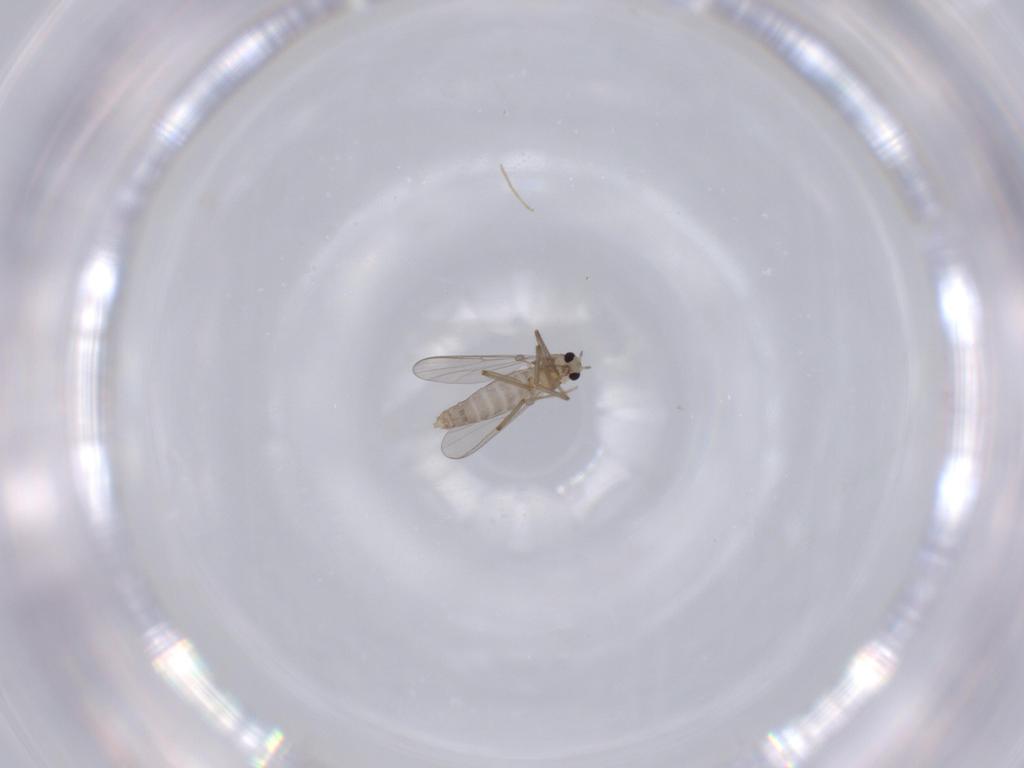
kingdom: Animalia
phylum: Arthropoda
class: Insecta
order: Diptera
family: Chironomidae
